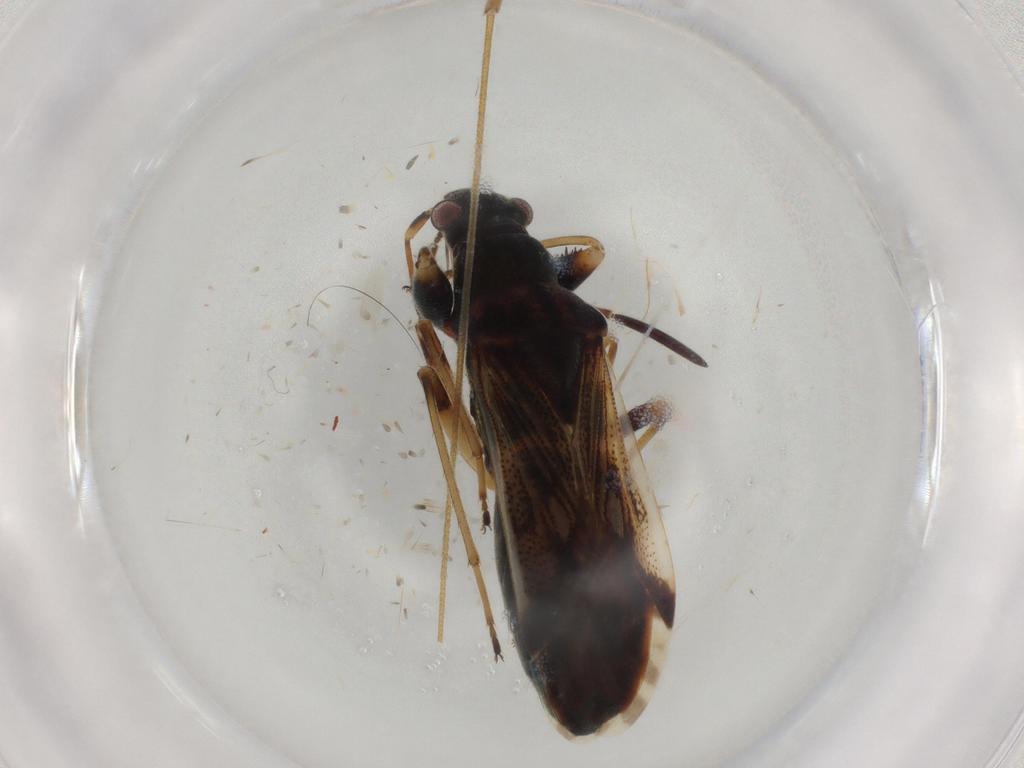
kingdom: Animalia
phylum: Arthropoda
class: Insecta
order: Hemiptera
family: Rhyparochromidae
